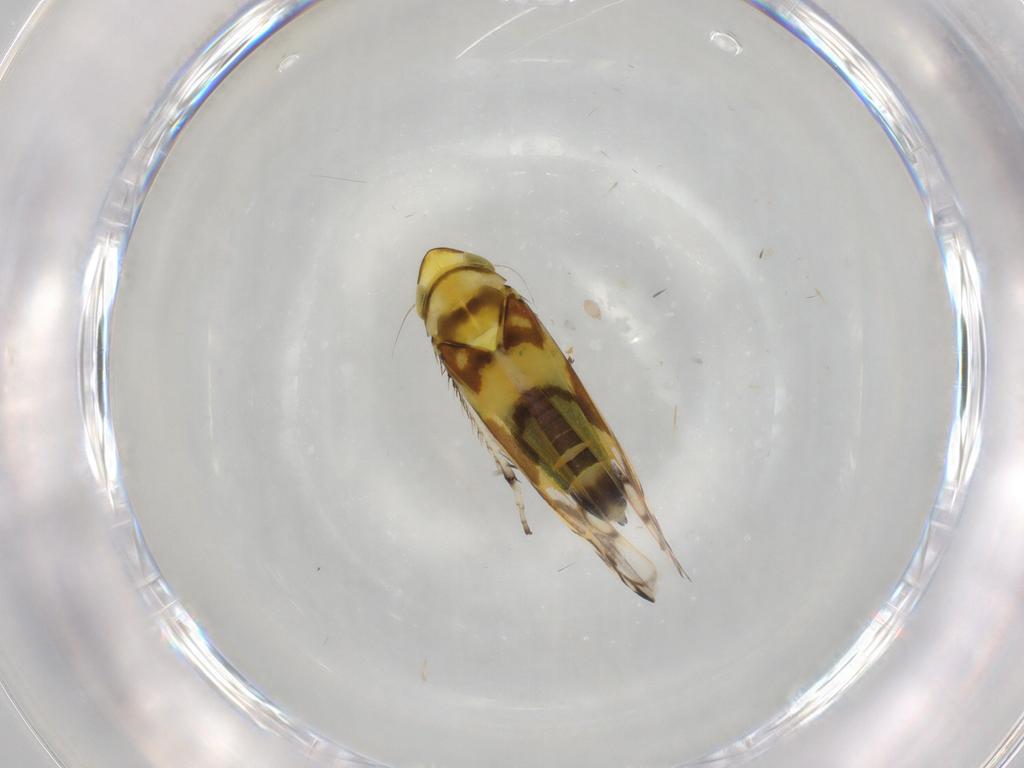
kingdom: Animalia
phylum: Arthropoda
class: Insecta
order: Hemiptera
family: Cicadellidae
